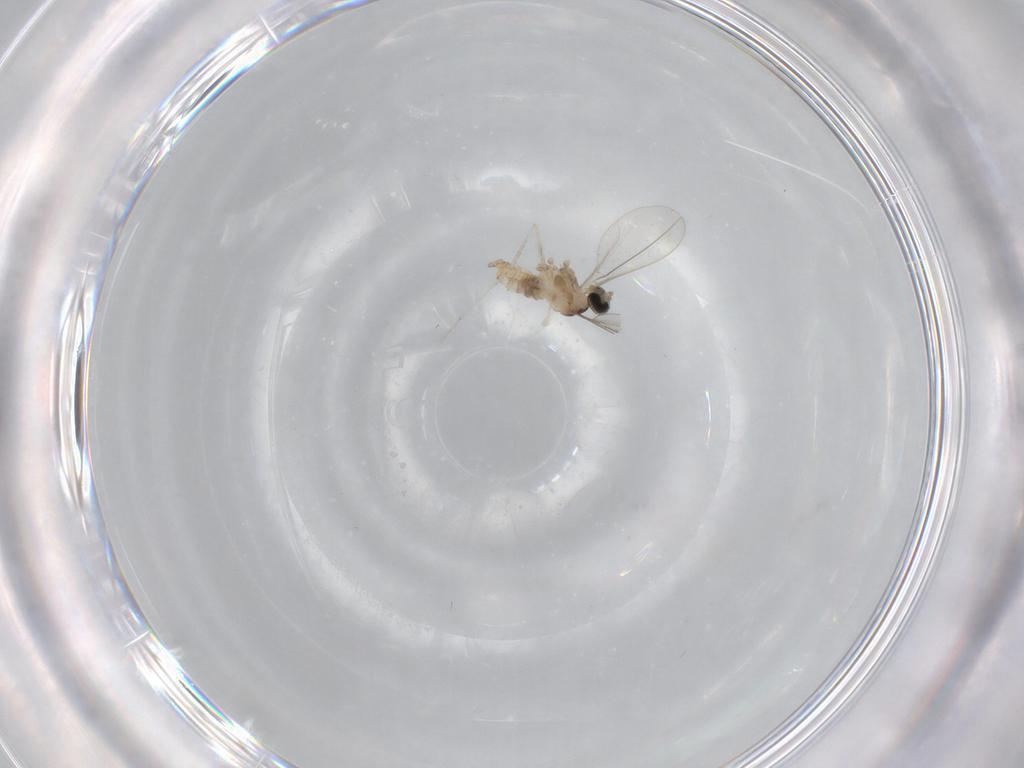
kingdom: Animalia
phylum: Arthropoda
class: Insecta
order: Diptera
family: Cecidomyiidae
